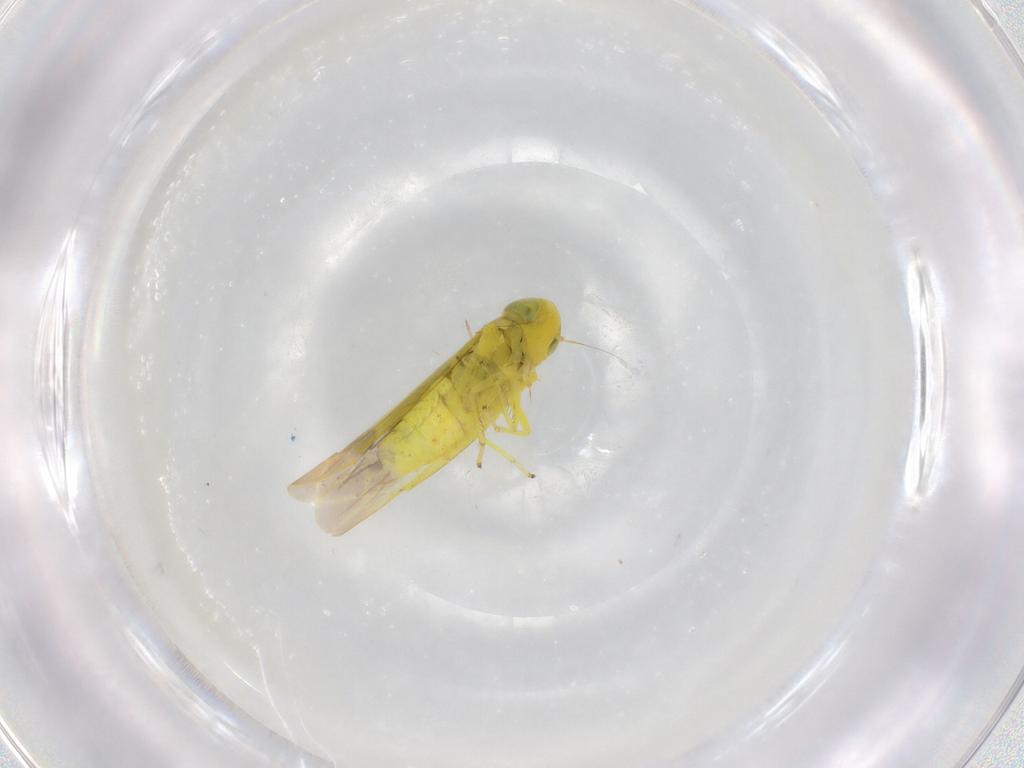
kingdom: Animalia
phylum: Arthropoda
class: Insecta
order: Hemiptera
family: Cicadellidae
